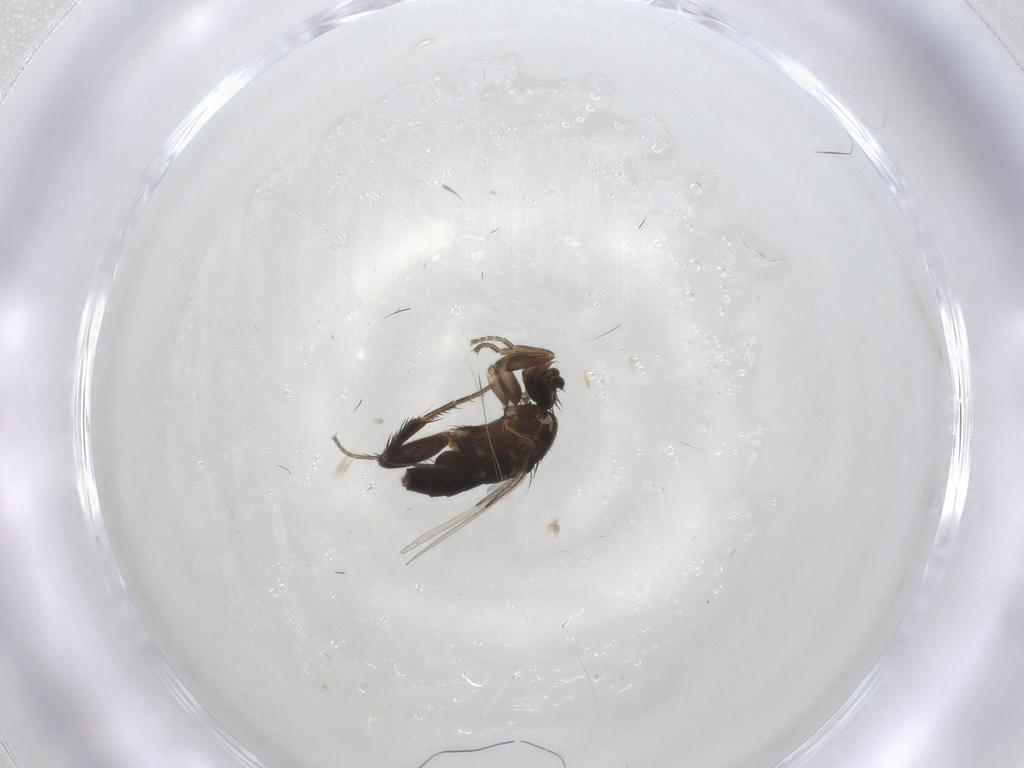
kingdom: Animalia
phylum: Arthropoda
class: Insecta
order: Diptera
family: Phoridae
